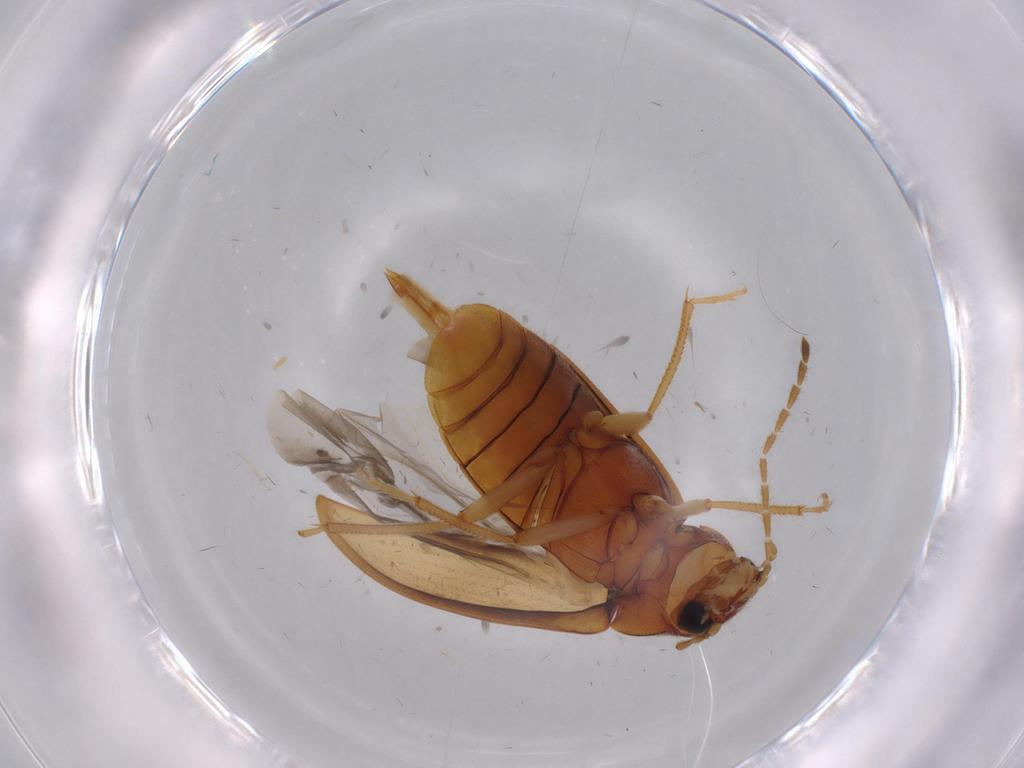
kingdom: Animalia
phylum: Arthropoda
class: Insecta
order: Coleoptera
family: Ptilodactylidae
